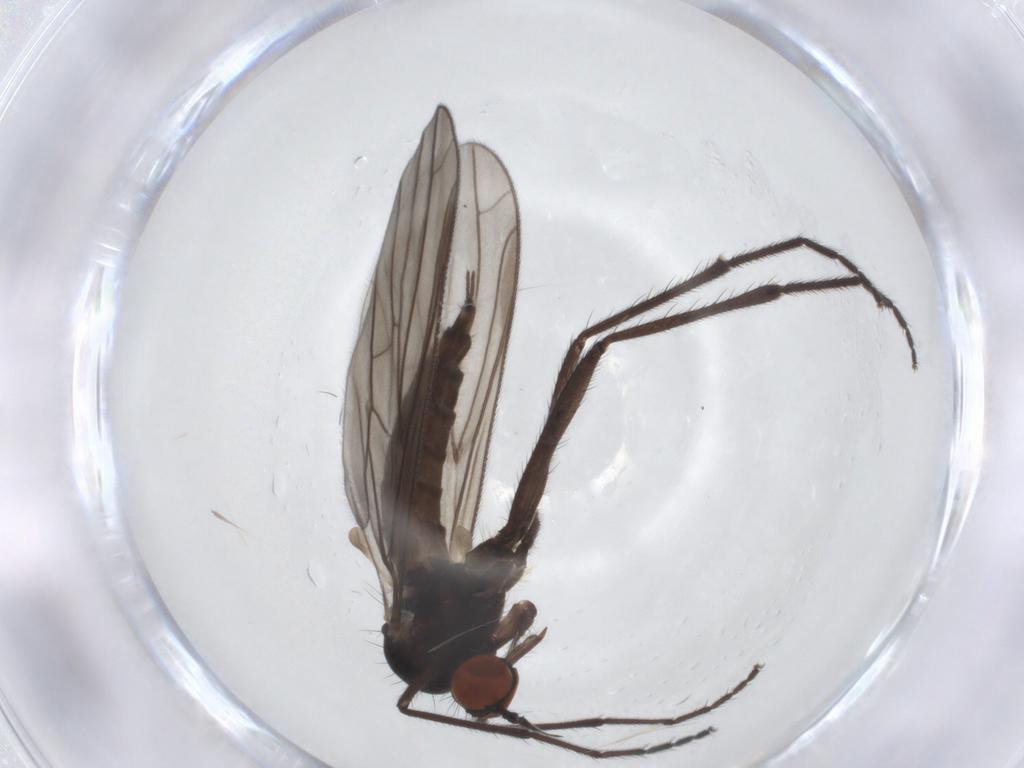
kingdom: Animalia
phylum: Arthropoda
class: Insecta
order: Diptera
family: Empididae
